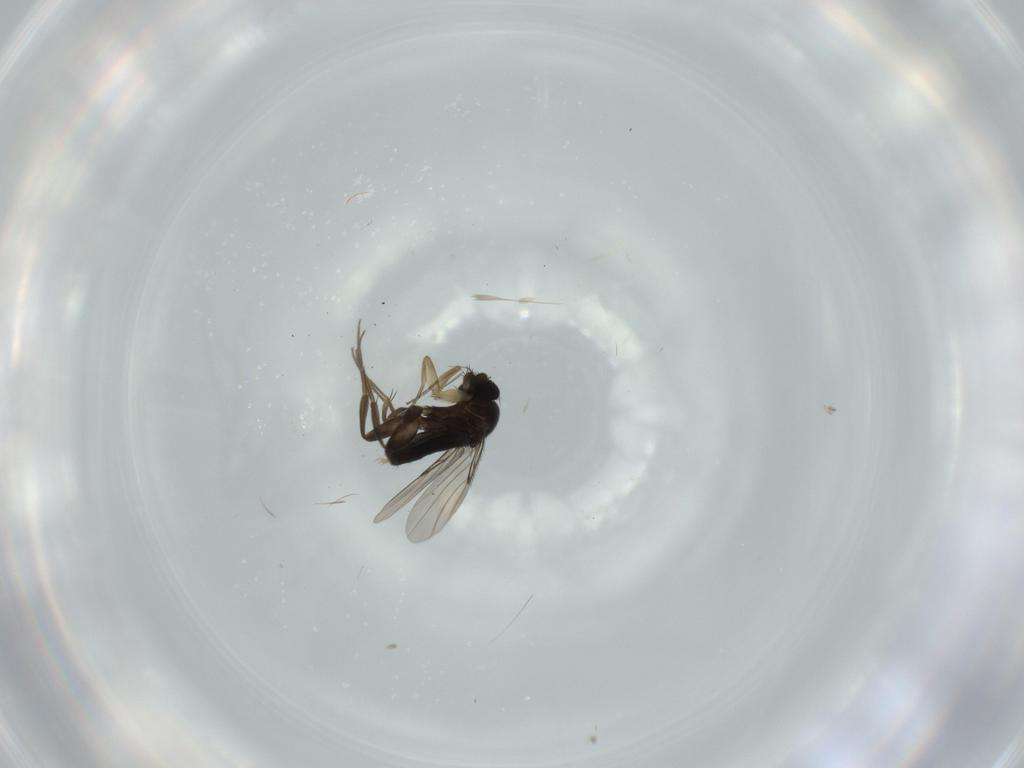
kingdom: Animalia
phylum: Arthropoda
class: Insecta
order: Diptera
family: Phoridae
